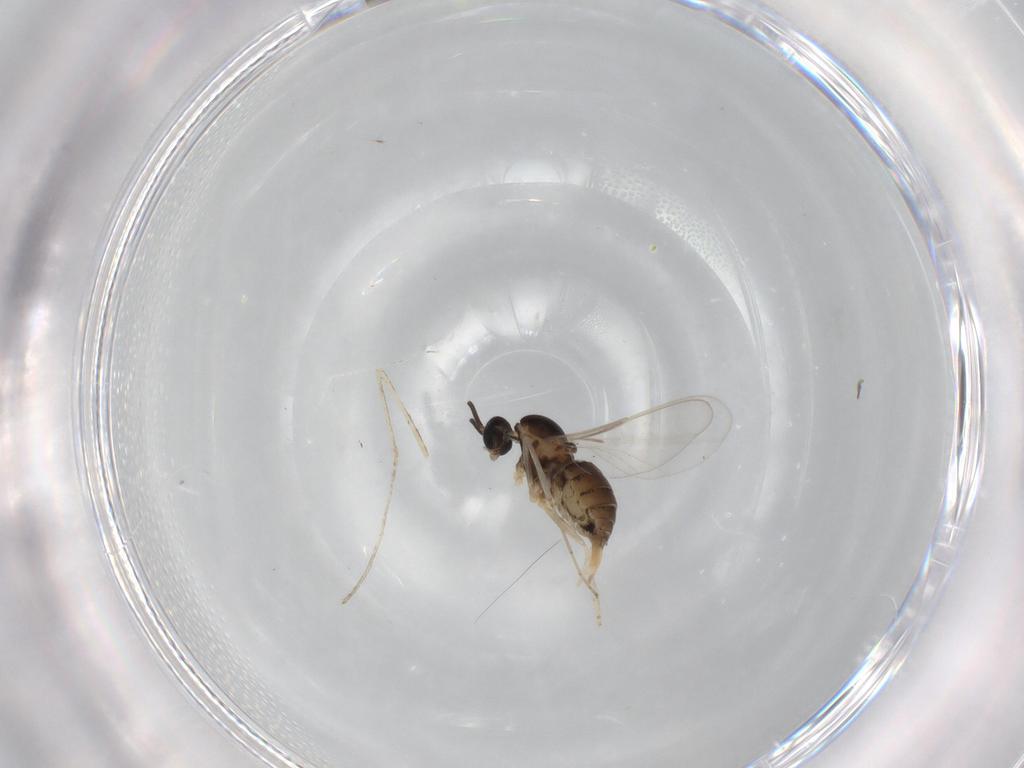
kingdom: Animalia
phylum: Arthropoda
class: Insecta
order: Diptera
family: Cecidomyiidae
